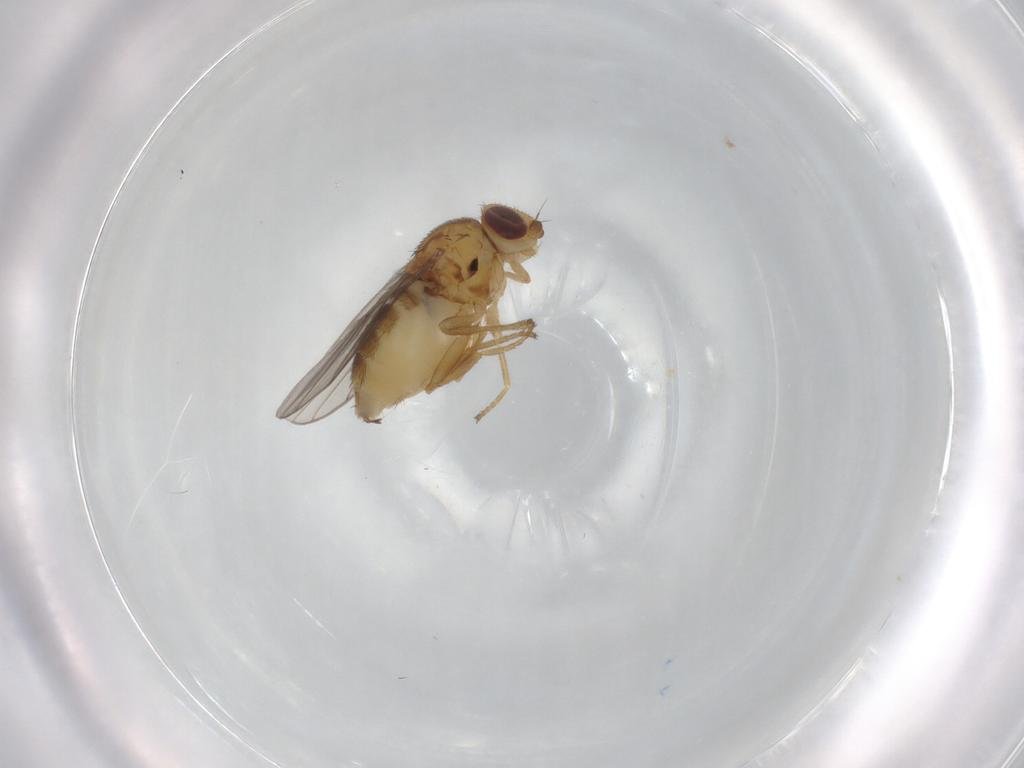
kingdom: Animalia
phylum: Arthropoda
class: Insecta
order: Diptera
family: Chloropidae
